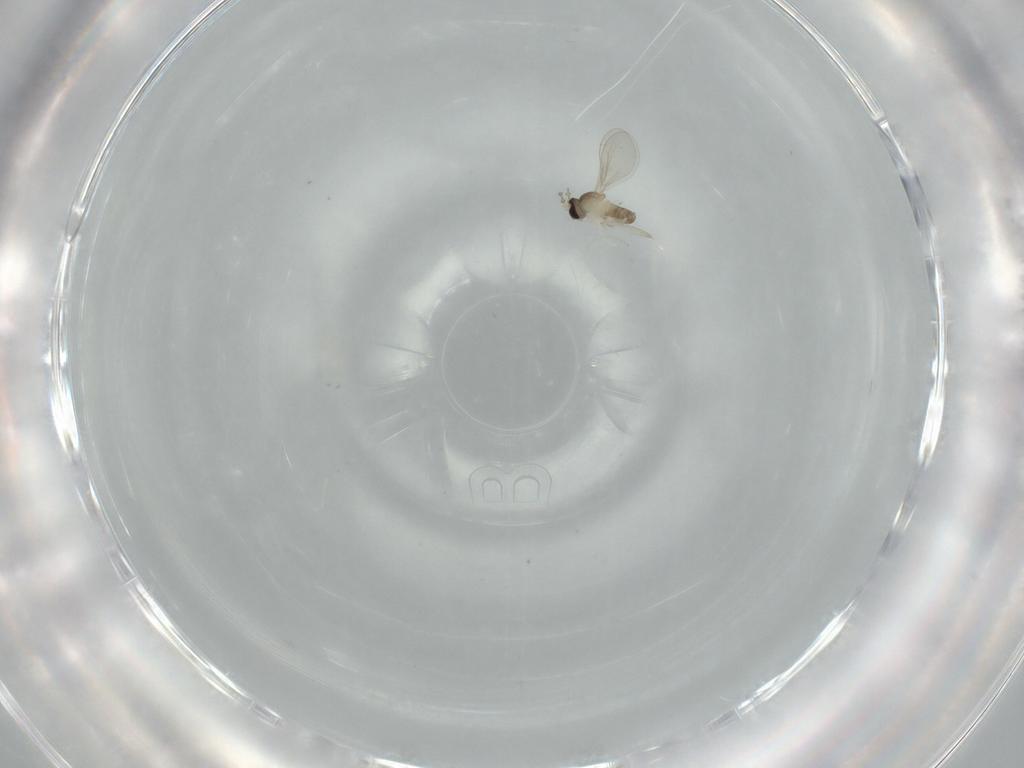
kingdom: Animalia
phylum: Arthropoda
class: Insecta
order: Diptera
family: Cecidomyiidae
